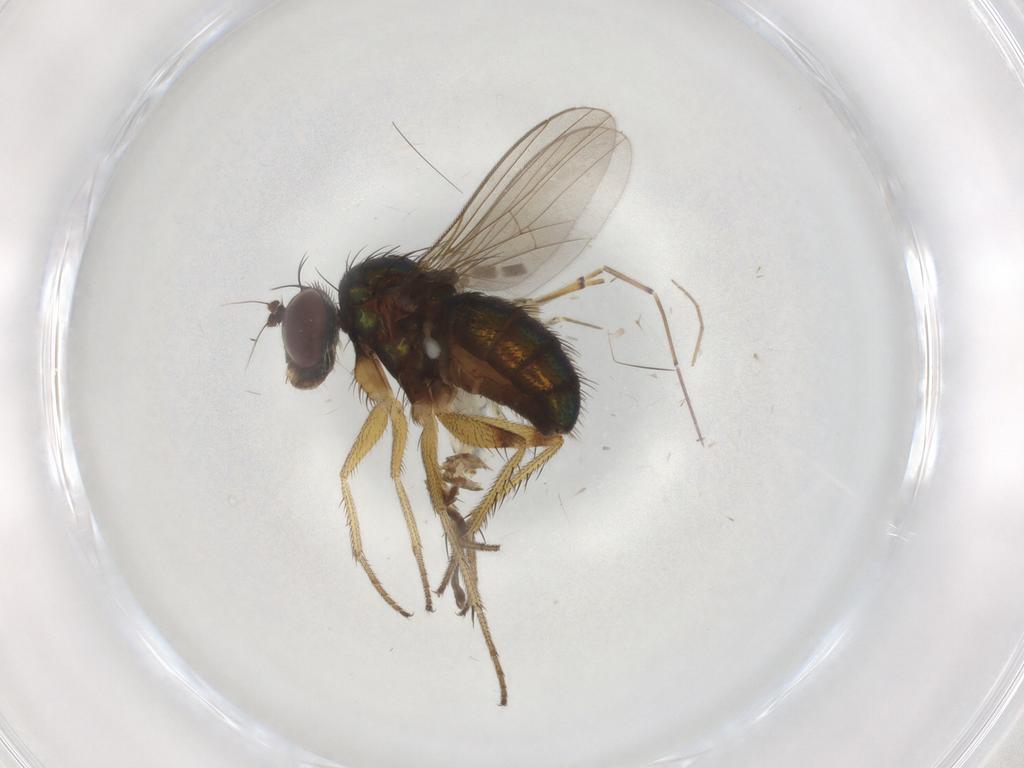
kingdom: Animalia
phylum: Arthropoda
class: Insecta
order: Diptera
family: Dolichopodidae
